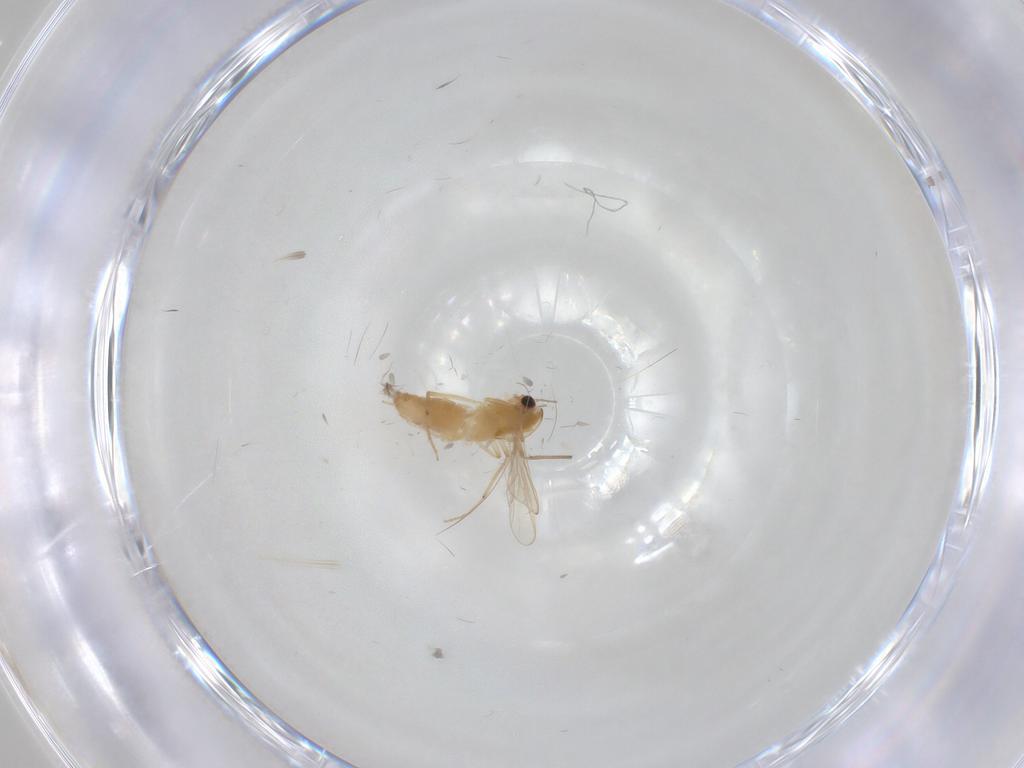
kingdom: Animalia
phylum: Arthropoda
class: Insecta
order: Diptera
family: Chironomidae
